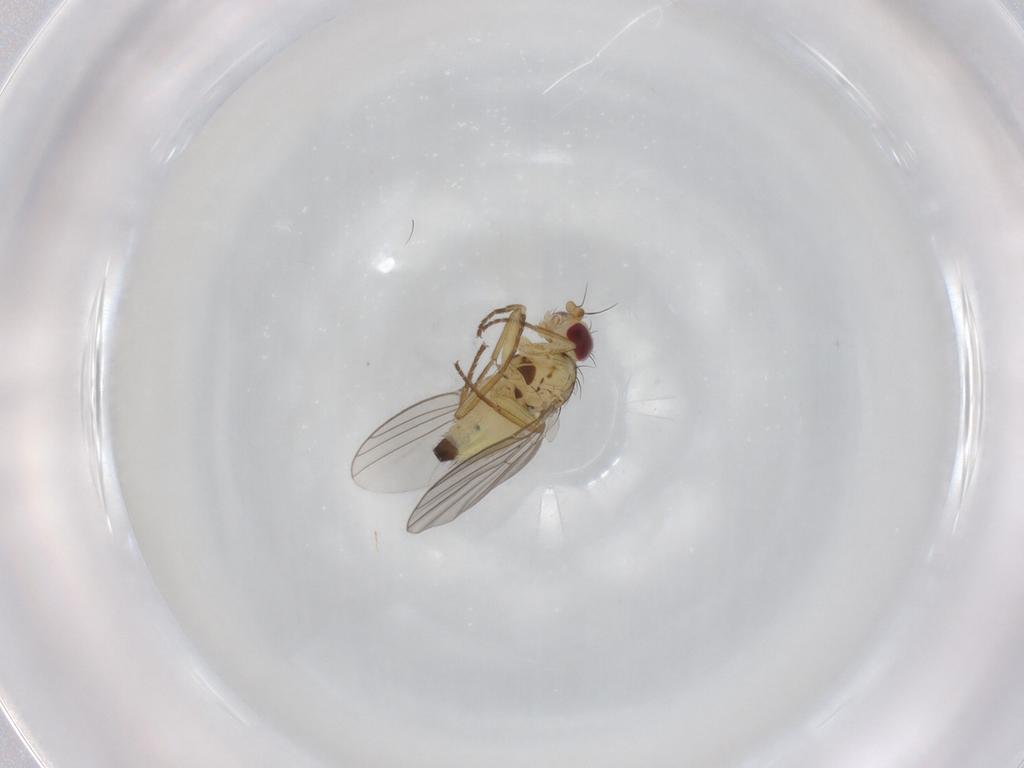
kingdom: Animalia
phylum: Arthropoda
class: Insecta
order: Diptera
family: Agromyzidae
